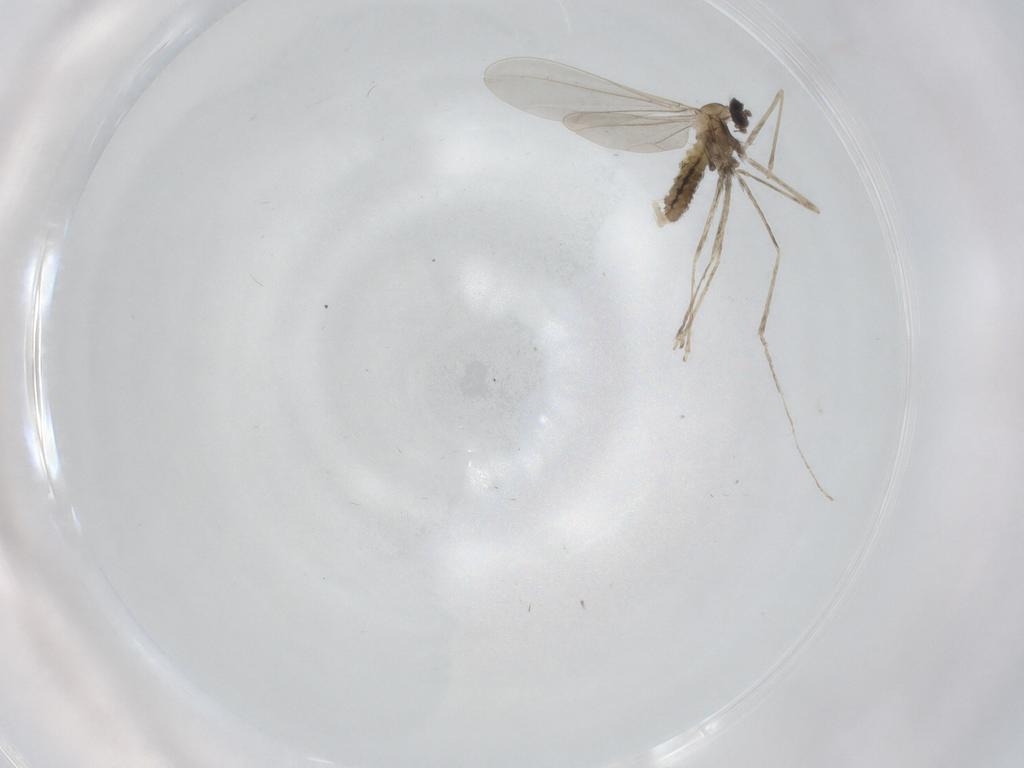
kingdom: Animalia
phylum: Arthropoda
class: Insecta
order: Diptera
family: Cecidomyiidae
